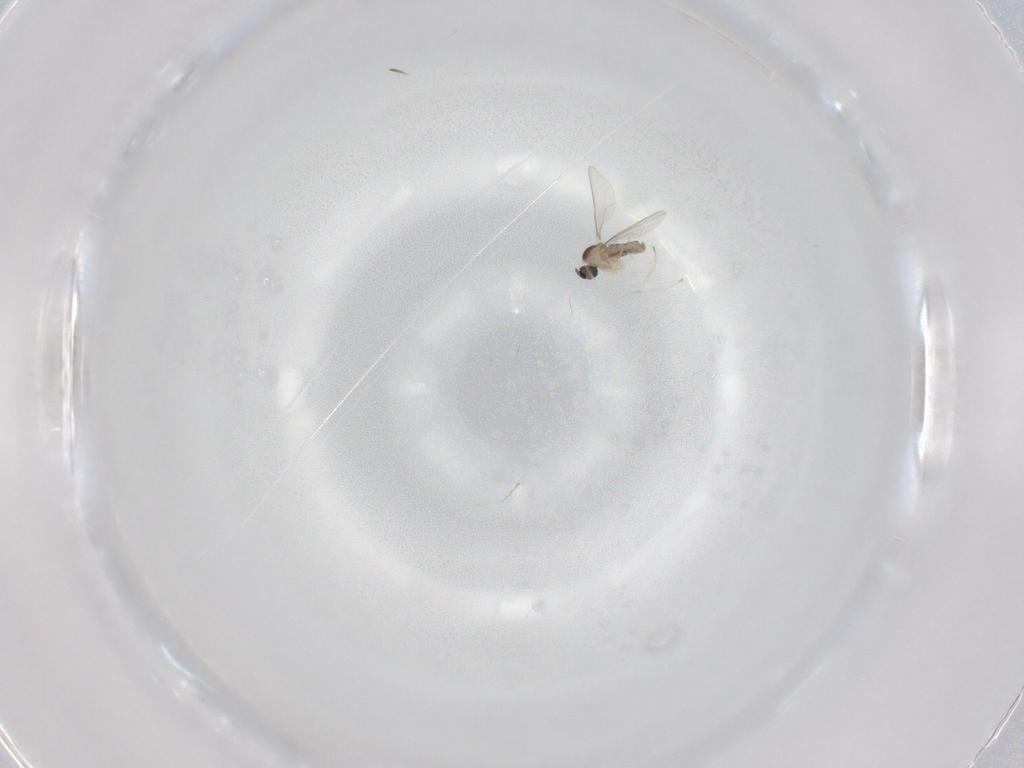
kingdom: Animalia
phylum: Arthropoda
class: Insecta
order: Diptera
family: Cecidomyiidae
